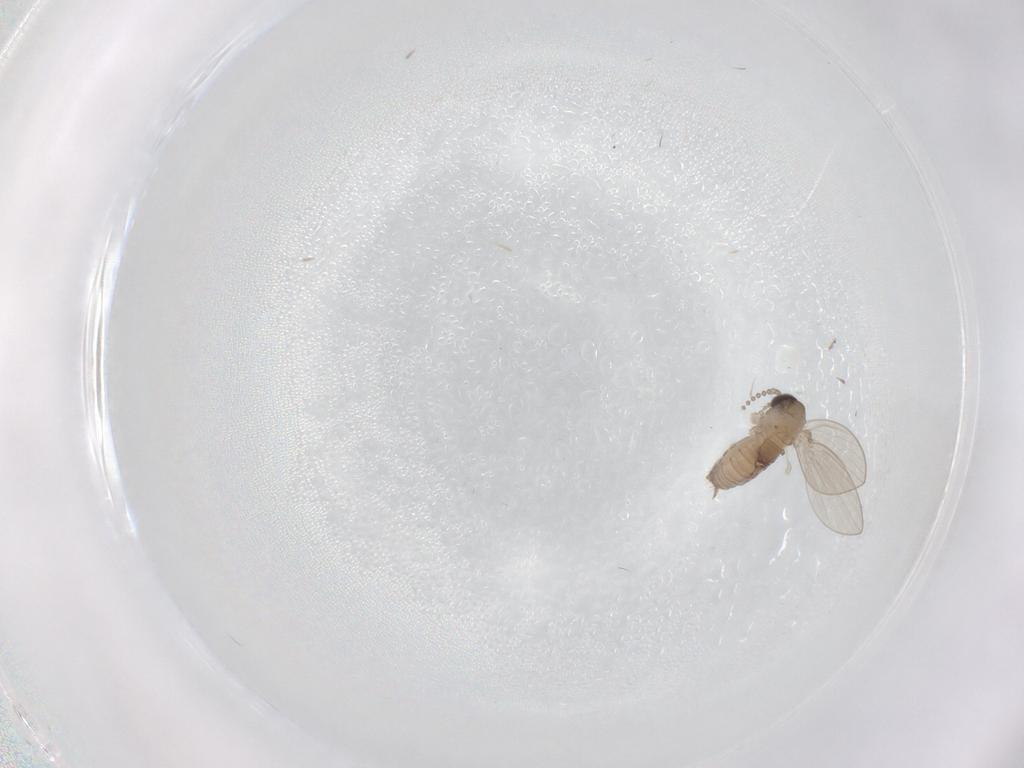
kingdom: Animalia
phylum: Arthropoda
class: Insecta
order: Diptera
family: Psychodidae
